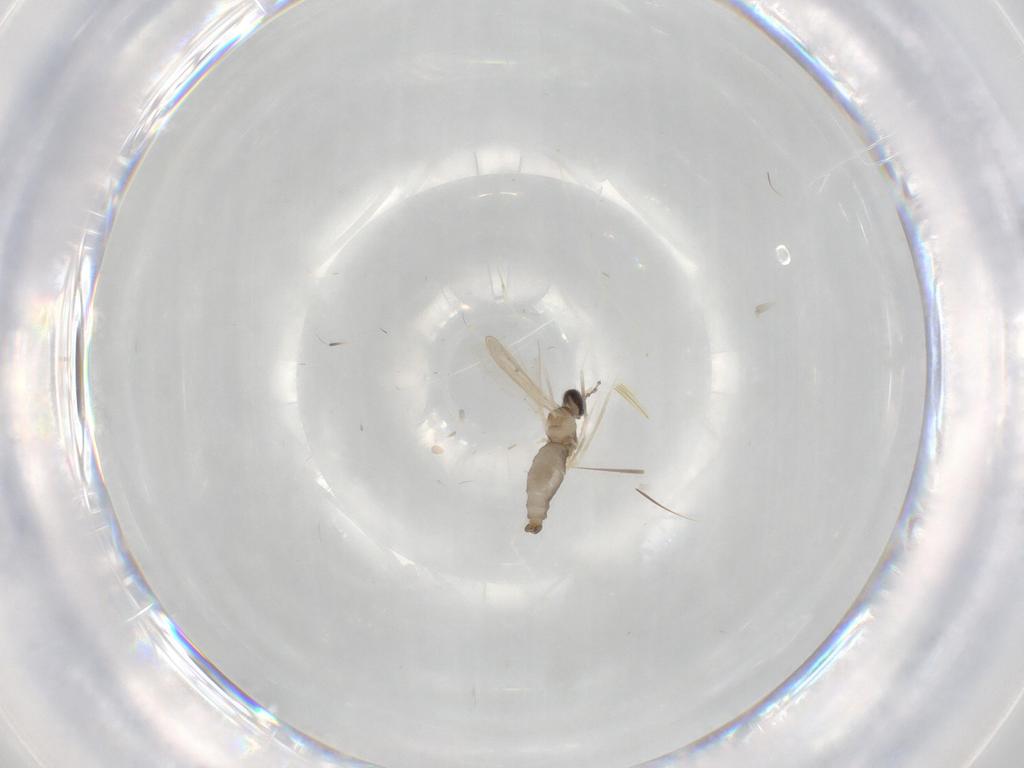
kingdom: Animalia
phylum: Arthropoda
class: Insecta
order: Diptera
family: Cecidomyiidae
